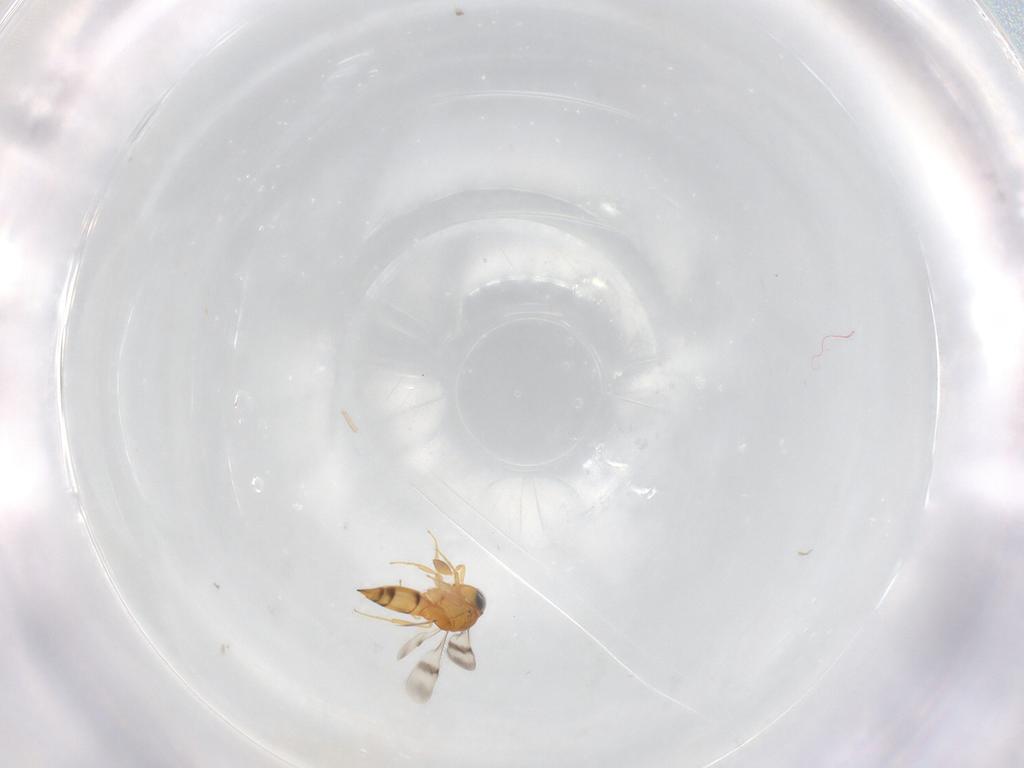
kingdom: Animalia
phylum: Arthropoda
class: Insecta
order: Hymenoptera
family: Scelionidae
